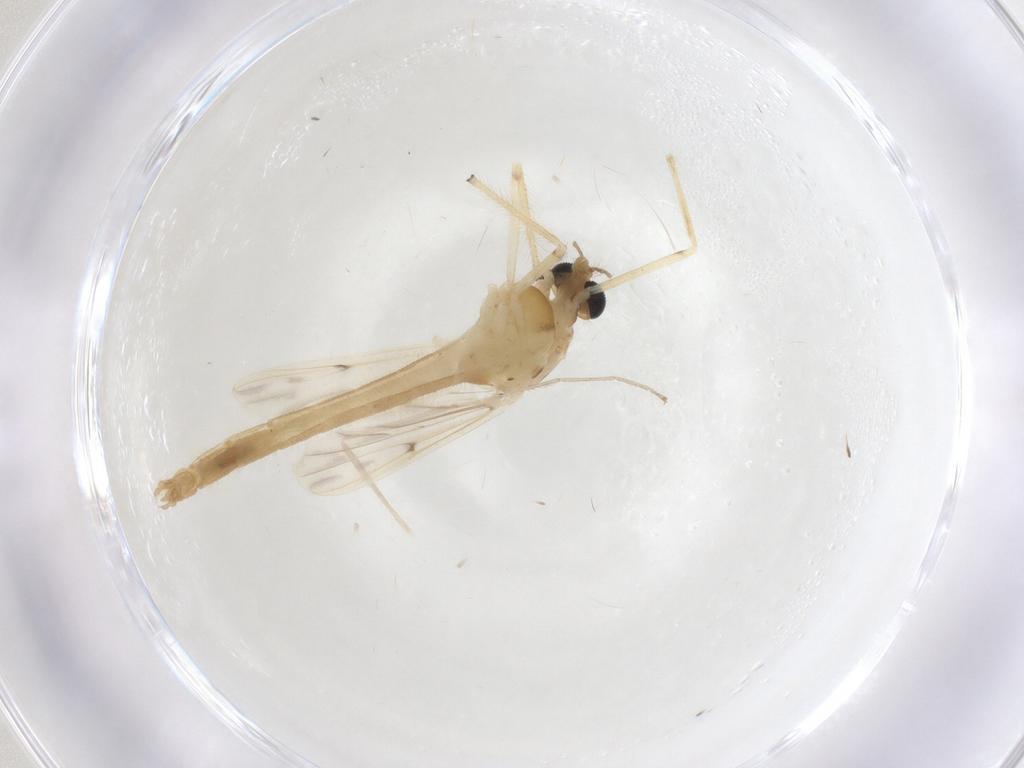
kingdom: Animalia
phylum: Arthropoda
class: Insecta
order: Diptera
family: Chironomidae
